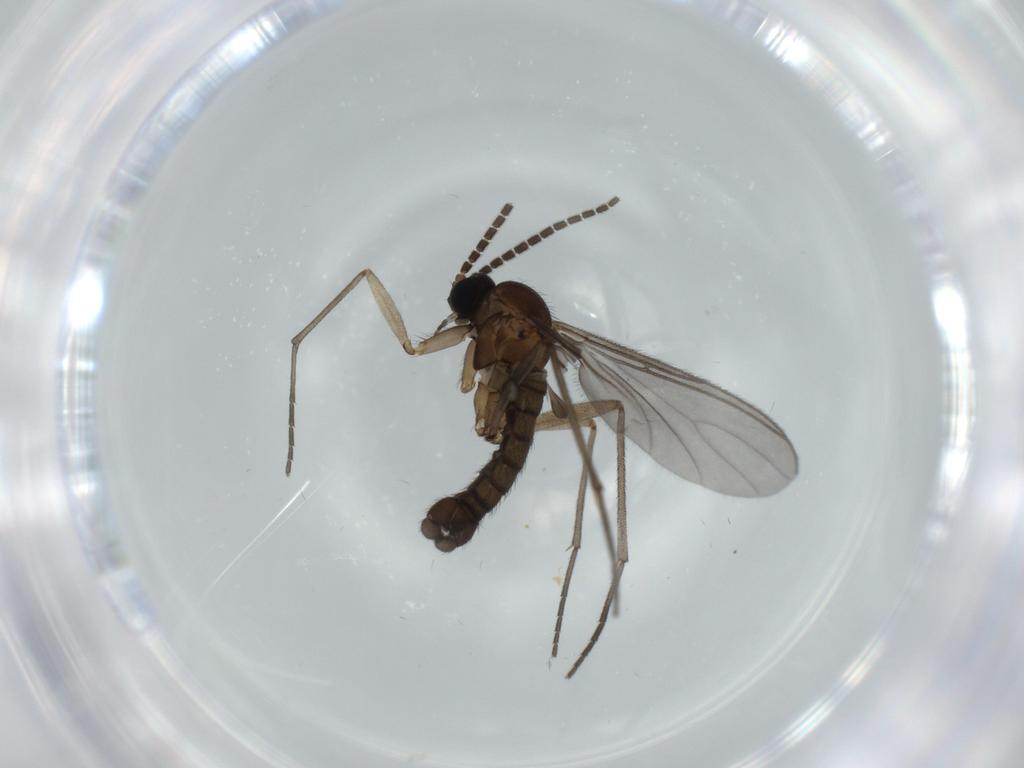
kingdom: Animalia
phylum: Arthropoda
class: Insecta
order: Diptera
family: Sciaridae
